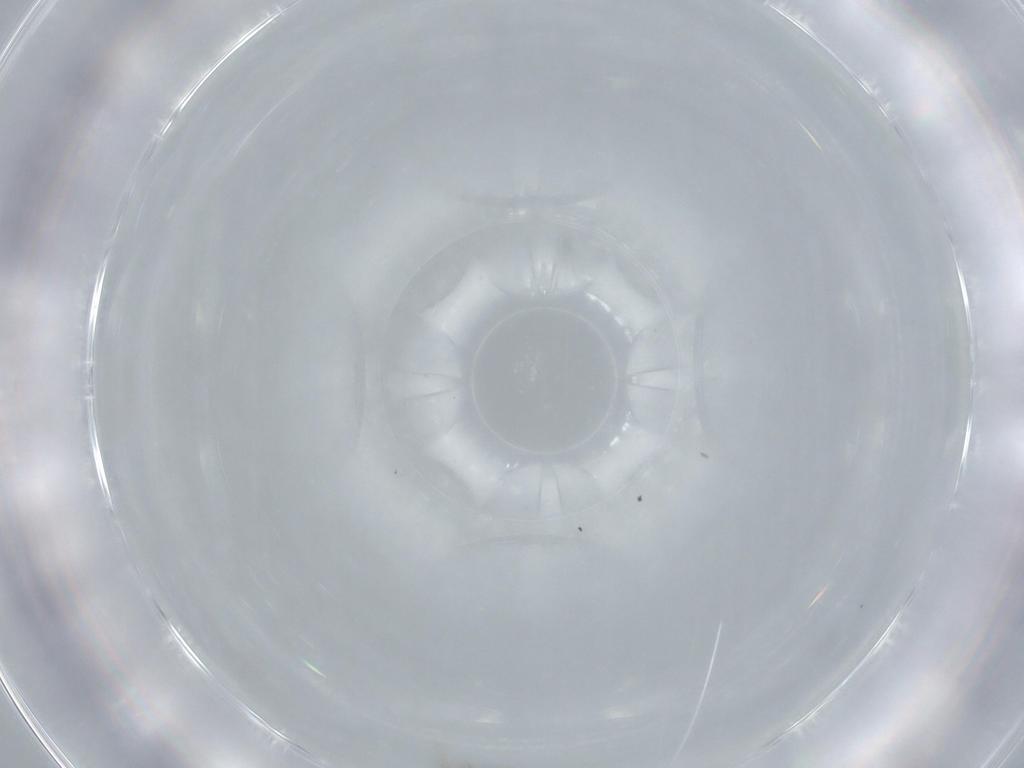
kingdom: Animalia
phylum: Arthropoda
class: Insecta
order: Hymenoptera
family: Mymaridae
